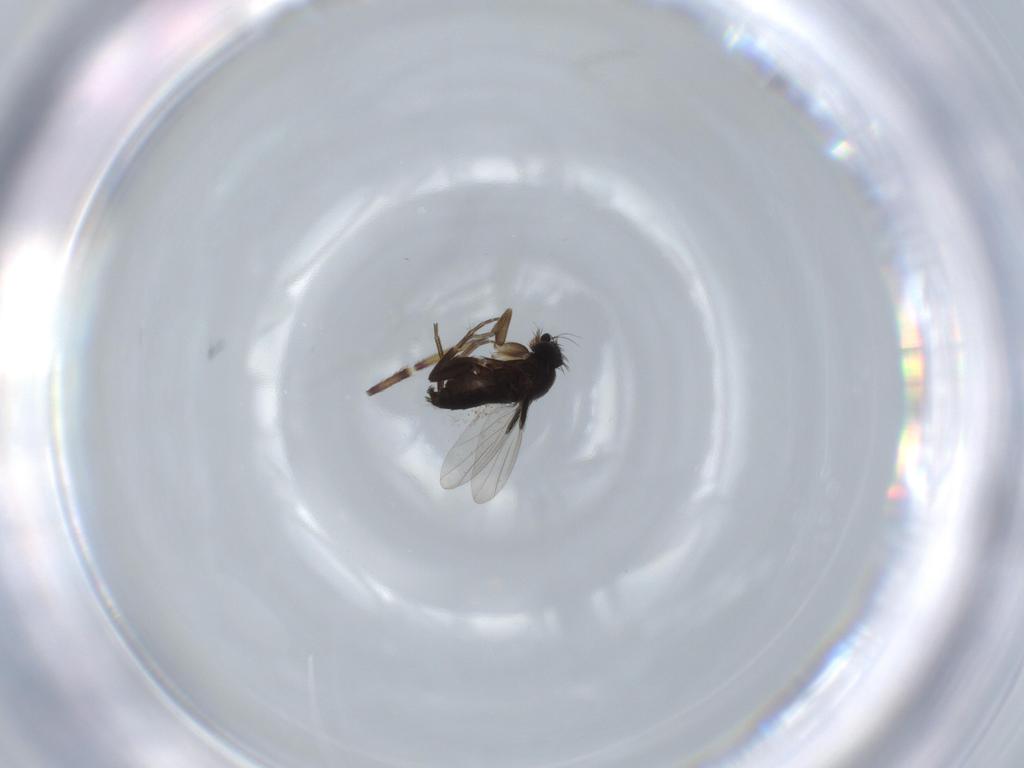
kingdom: Animalia
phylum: Arthropoda
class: Insecta
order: Diptera
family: Phoridae
